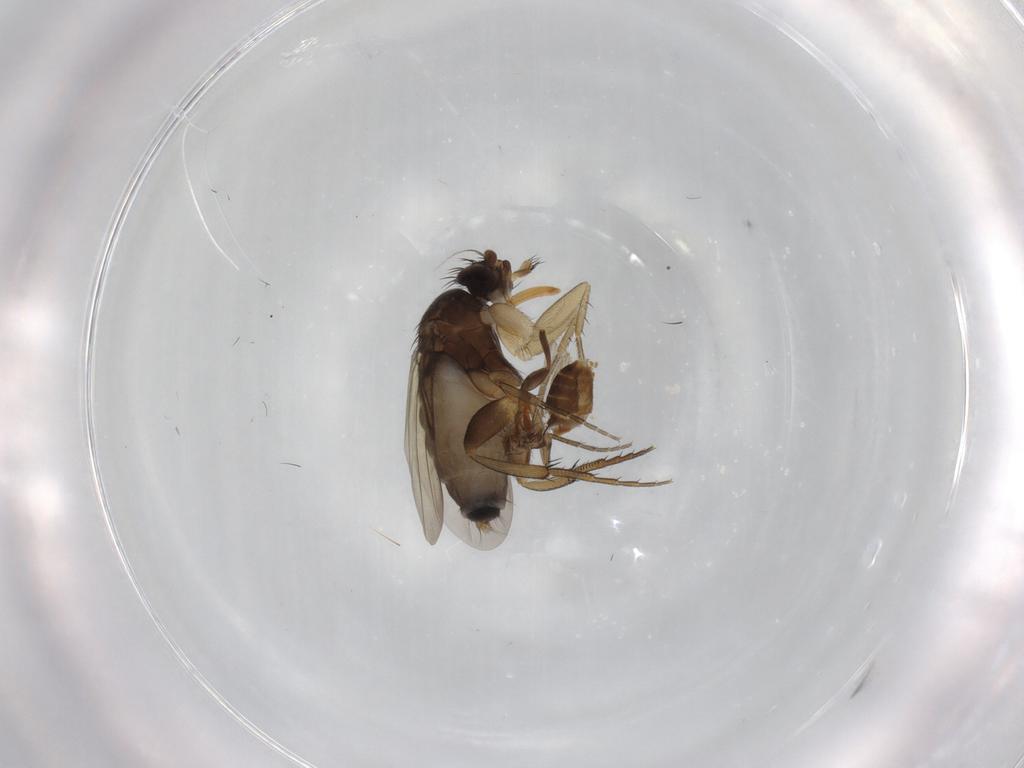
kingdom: Animalia
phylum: Arthropoda
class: Insecta
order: Diptera
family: Phoridae
